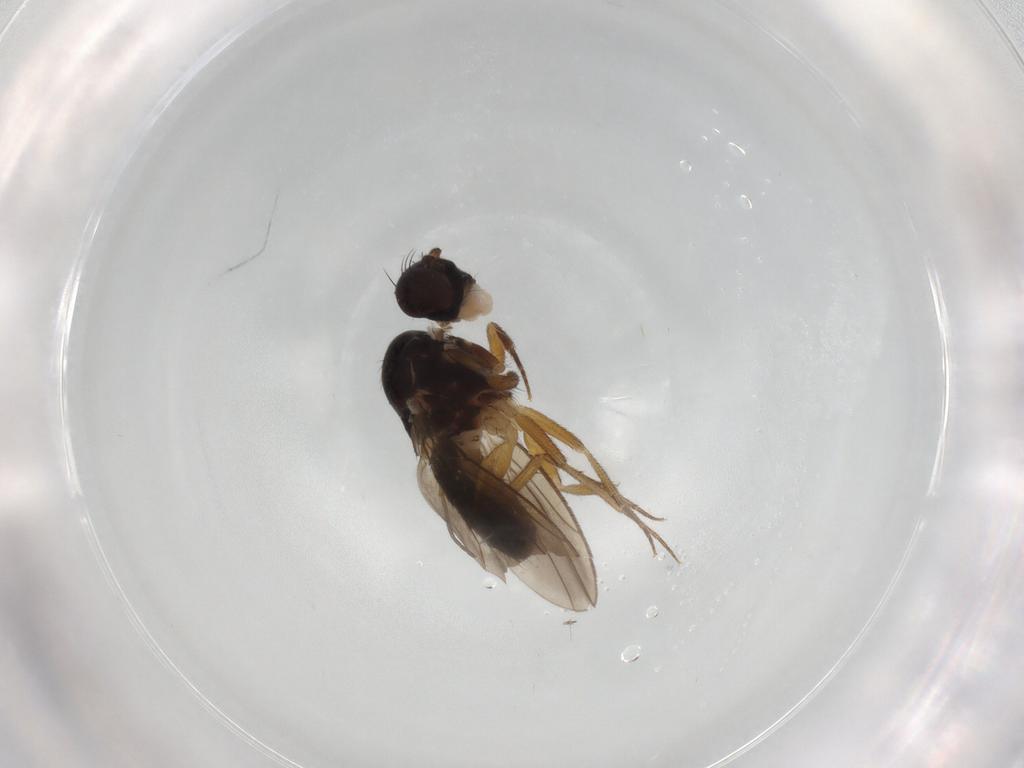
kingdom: Animalia
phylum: Arthropoda
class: Insecta
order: Diptera
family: Drosophilidae
